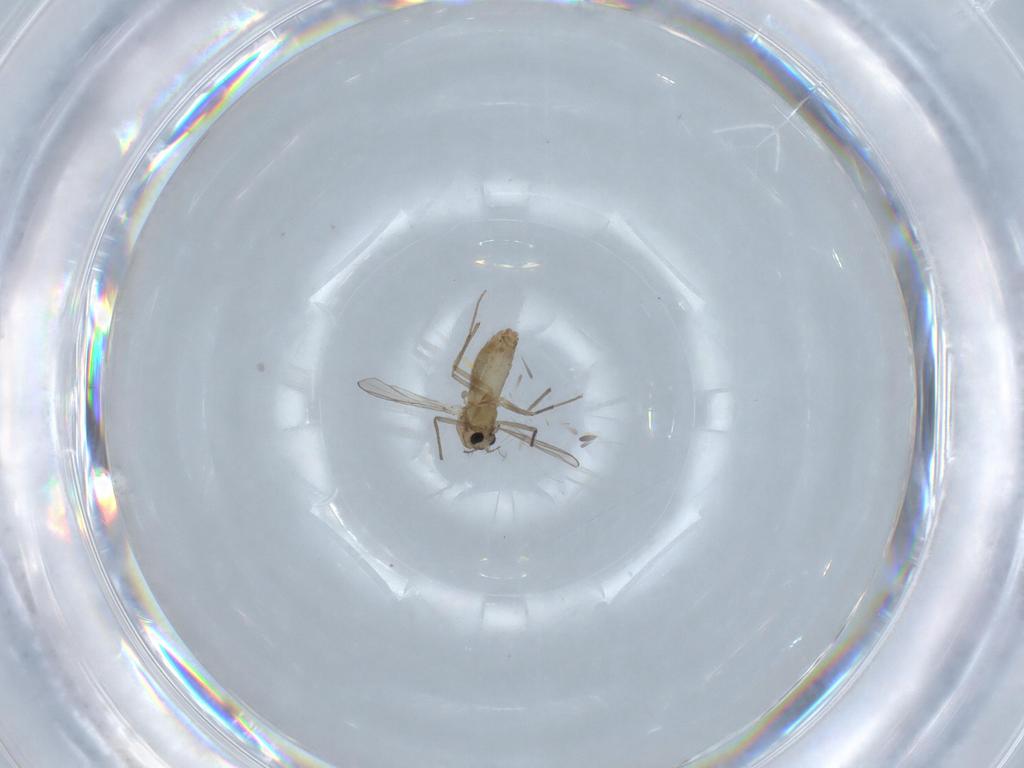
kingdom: Animalia
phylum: Arthropoda
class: Insecta
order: Diptera
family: Chironomidae
